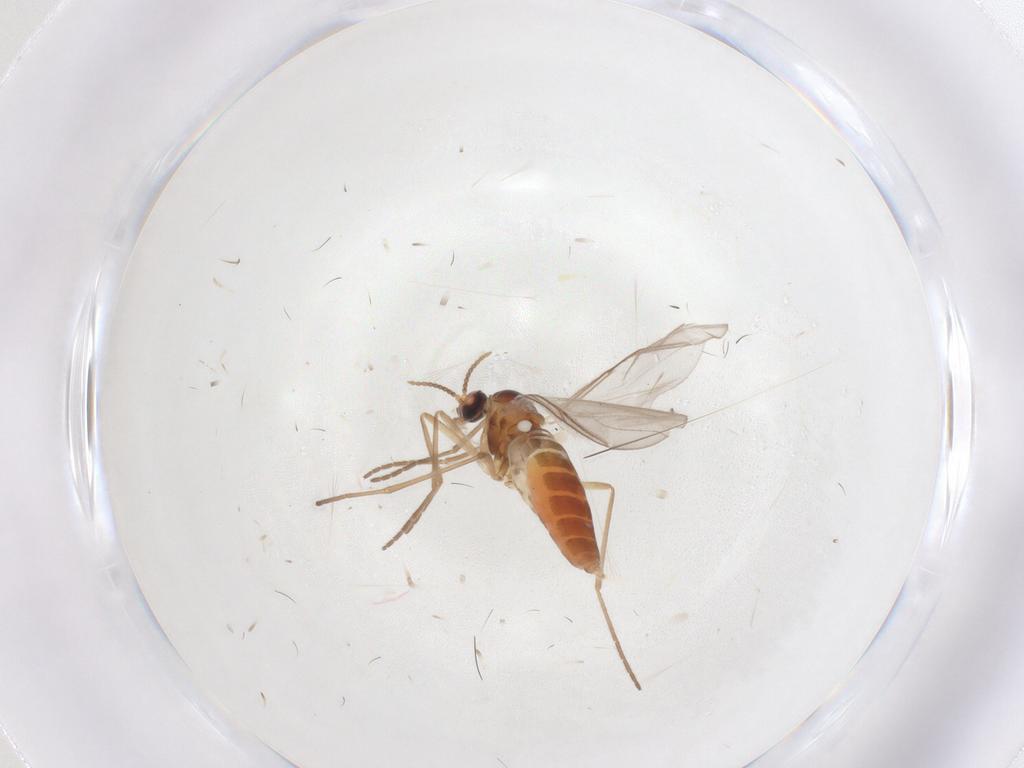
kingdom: Animalia
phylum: Arthropoda
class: Insecta
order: Diptera
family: Cecidomyiidae
